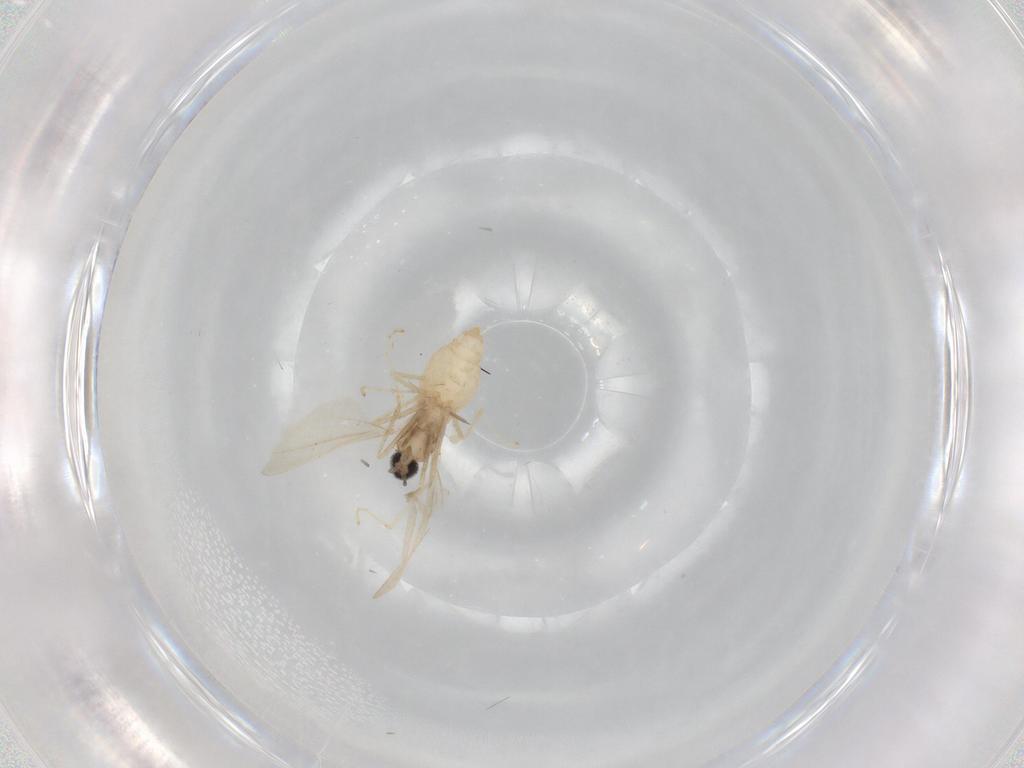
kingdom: Animalia
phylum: Arthropoda
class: Insecta
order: Diptera
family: Cecidomyiidae
